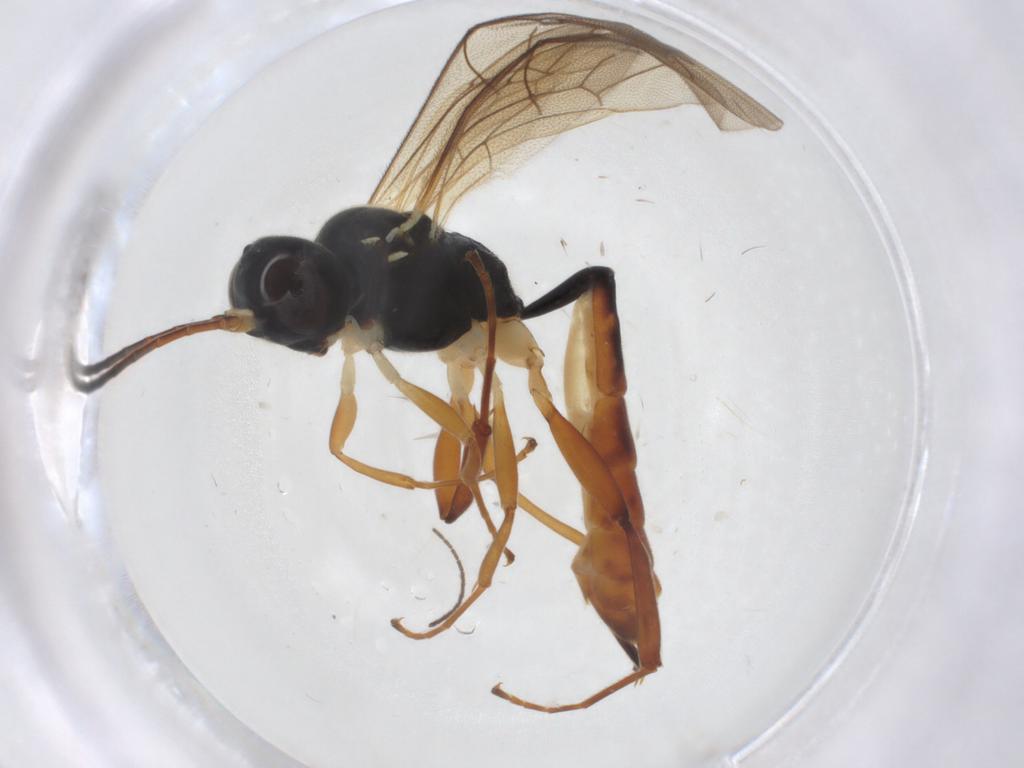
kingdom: Animalia
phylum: Arthropoda
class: Insecta
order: Hymenoptera
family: Ichneumonidae
